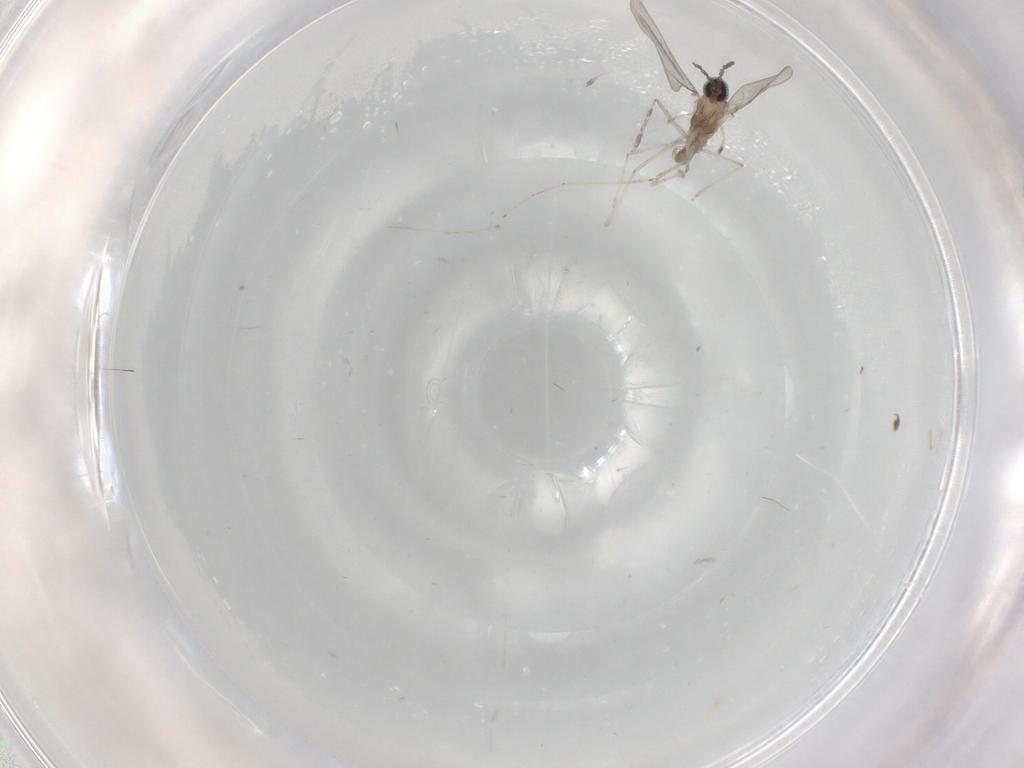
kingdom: Animalia
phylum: Arthropoda
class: Insecta
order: Diptera
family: Cecidomyiidae
